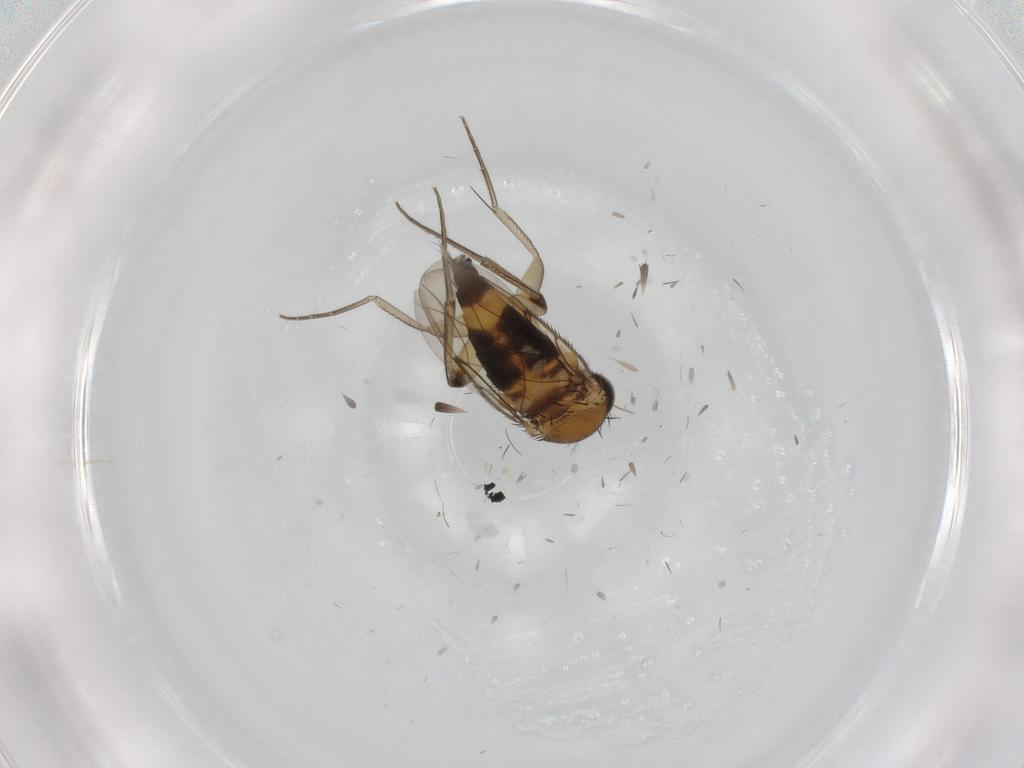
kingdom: Animalia
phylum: Arthropoda
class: Insecta
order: Diptera
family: Phoridae
